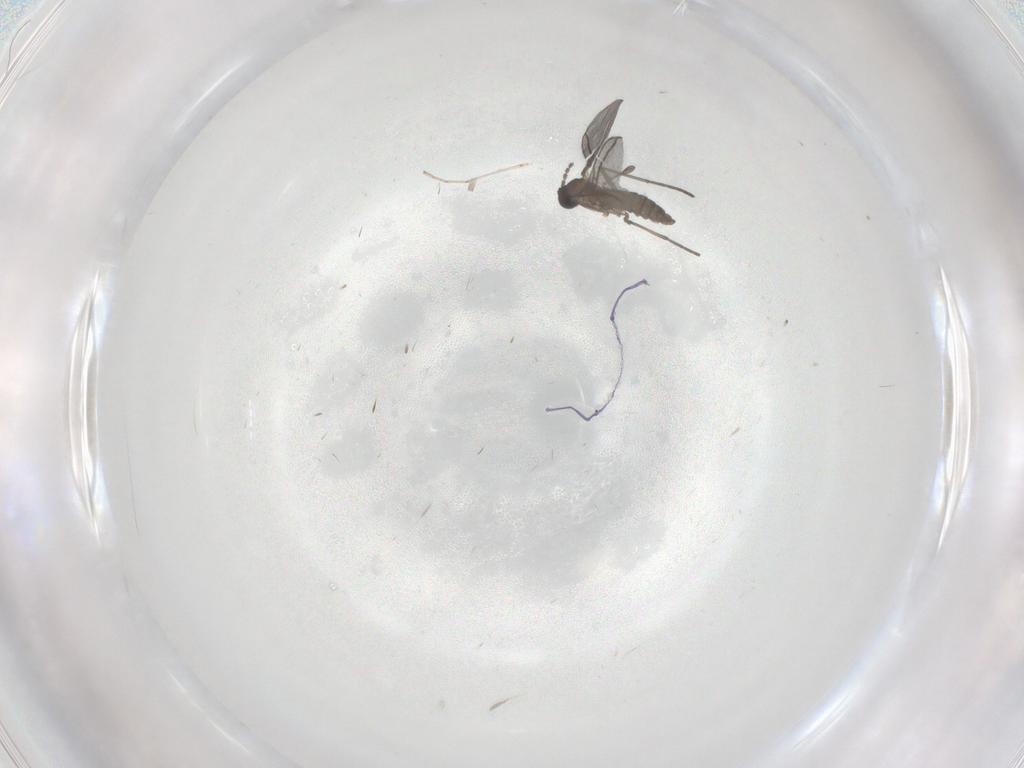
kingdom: Animalia
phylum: Arthropoda
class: Insecta
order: Diptera
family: Sciaridae
